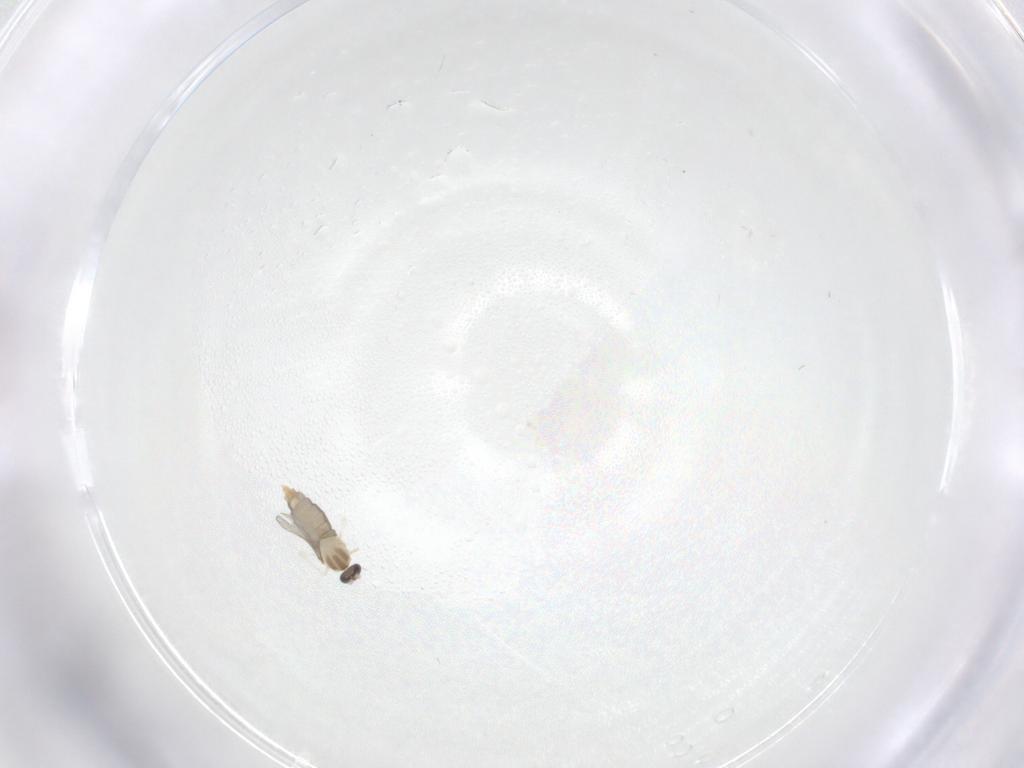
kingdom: Animalia
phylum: Arthropoda
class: Insecta
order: Diptera
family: Cecidomyiidae
